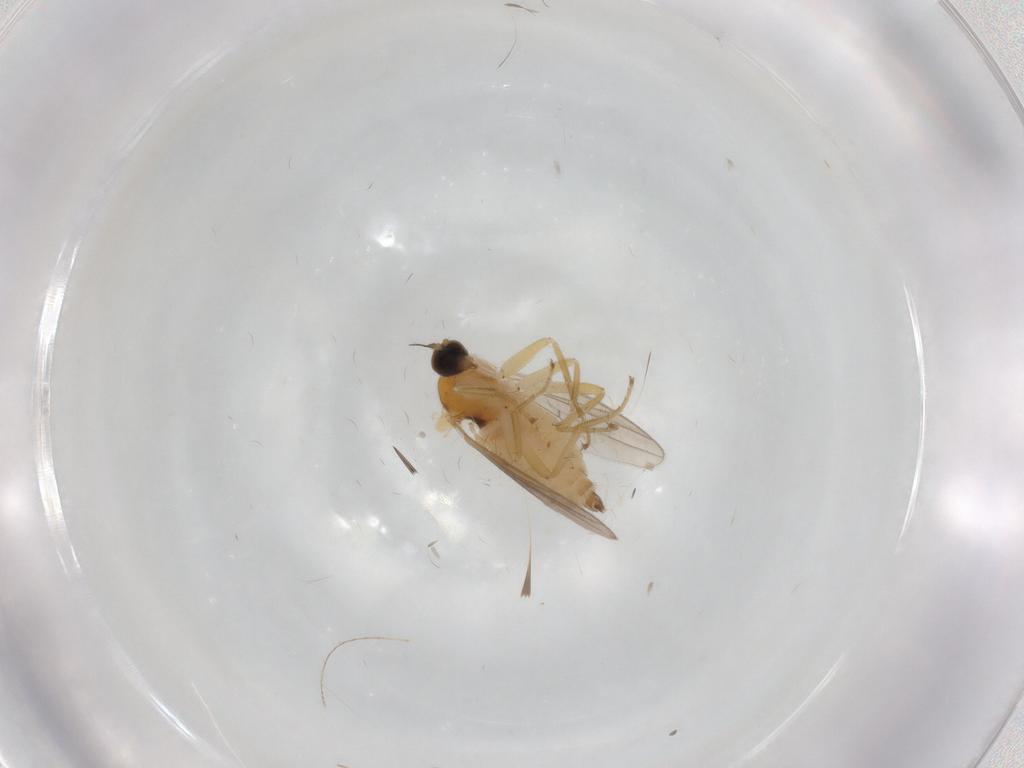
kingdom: Animalia
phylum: Arthropoda
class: Insecta
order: Diptera
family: Hybotidae
